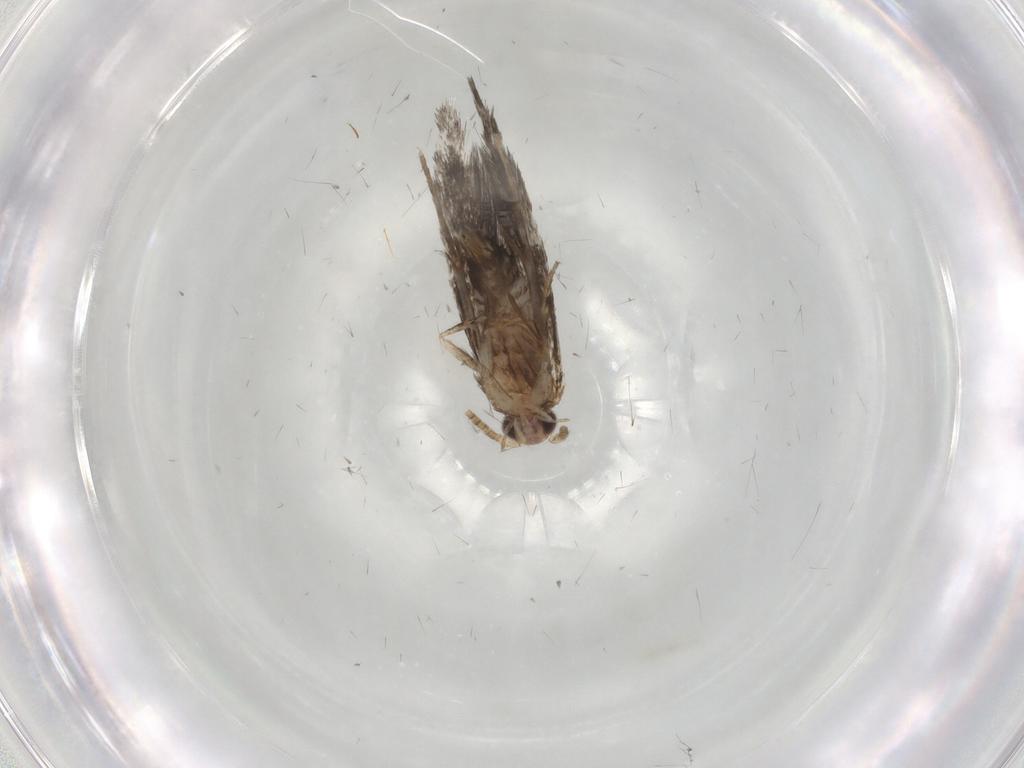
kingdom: Animalia
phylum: Arthropoda
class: Insecta
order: Lepidoptera
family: Tineidae
